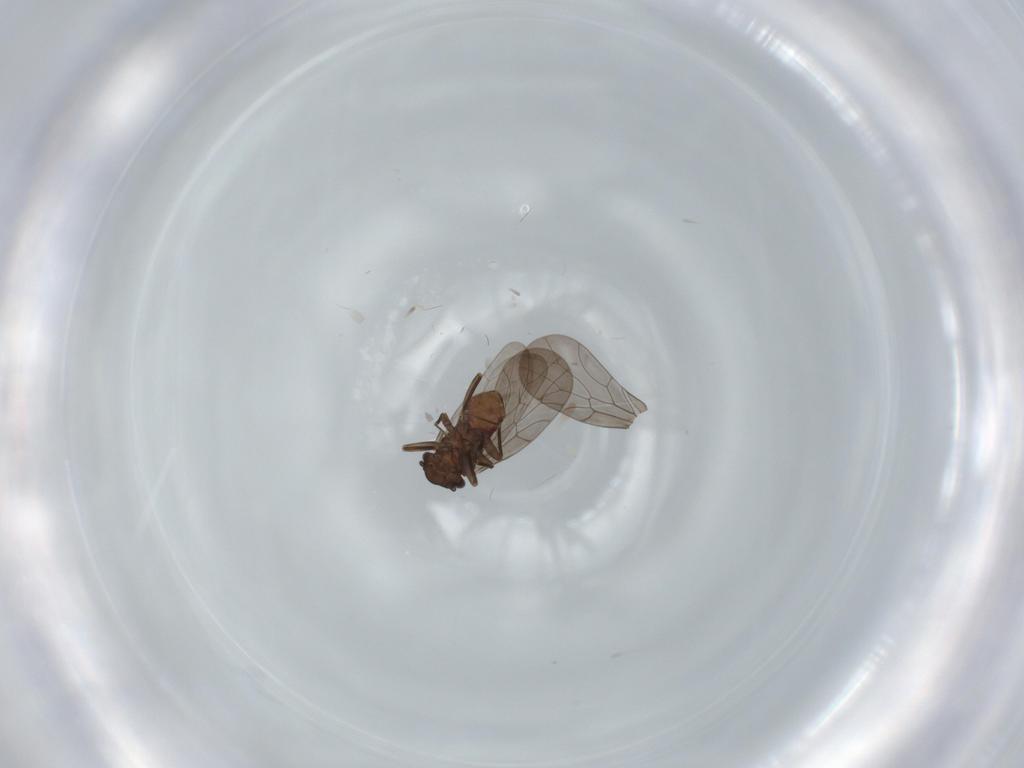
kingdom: Animalia
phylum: Arthropoda
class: Insecta
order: Psocodea
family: Lepidopsocidae
